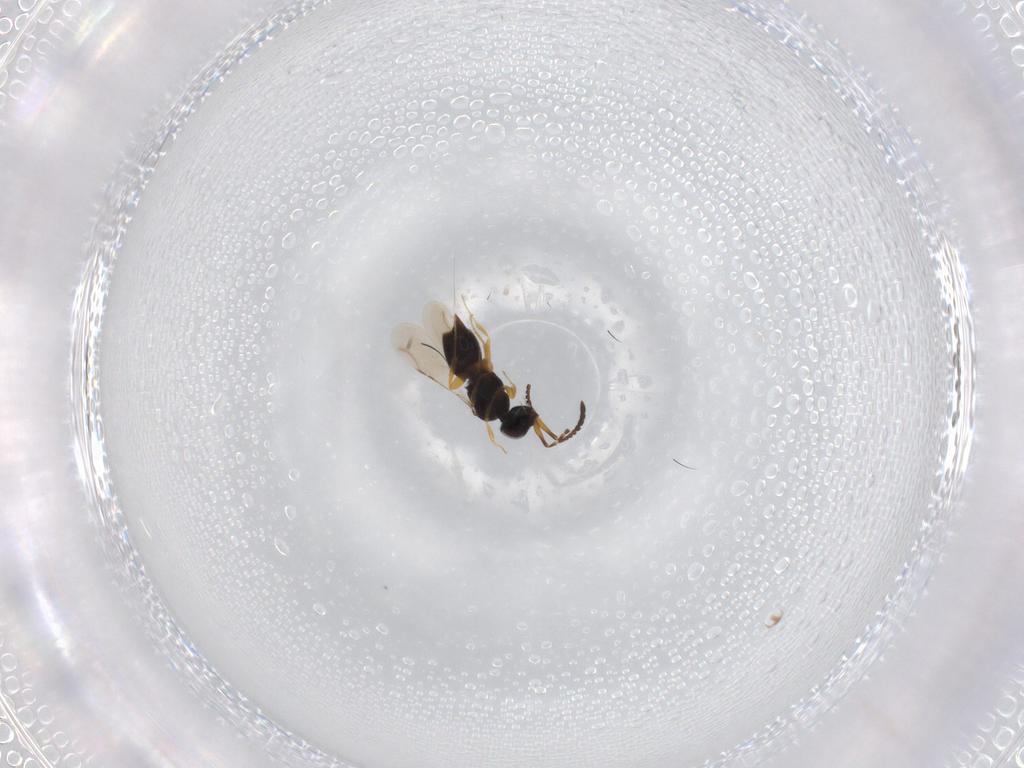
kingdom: Animalia
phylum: Arthropoda
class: Insecta
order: Hymenoptera
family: Ceraphronidae
